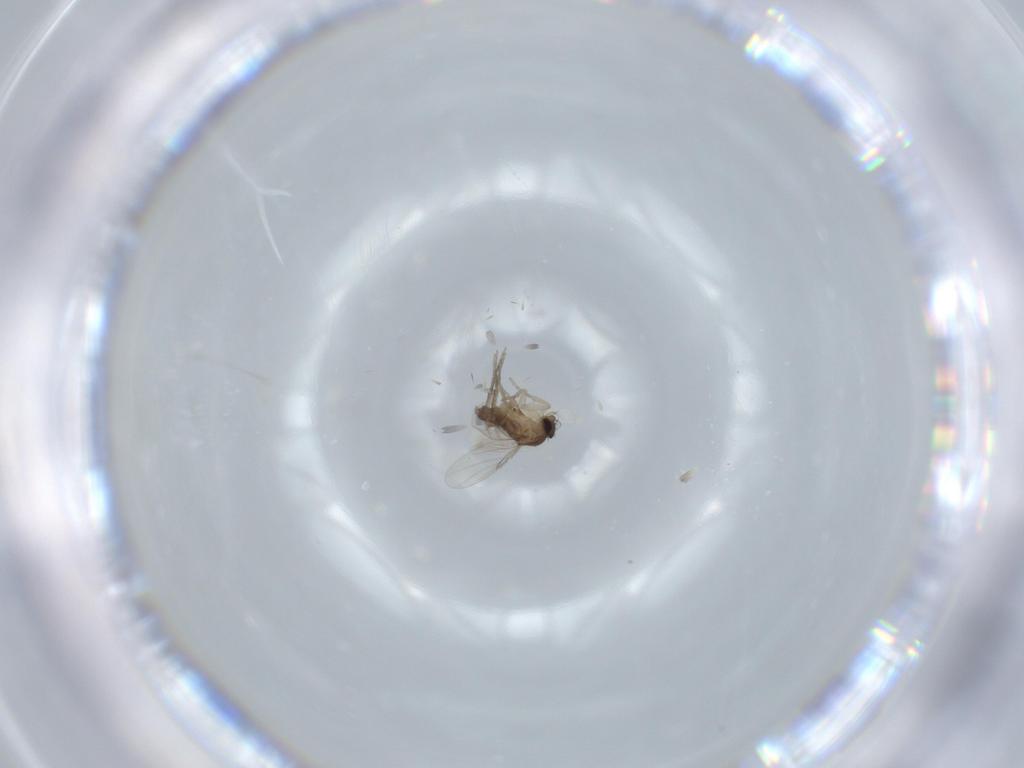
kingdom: Animalia
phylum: Arthropoda
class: Insecta
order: Diptera
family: Phoridae
